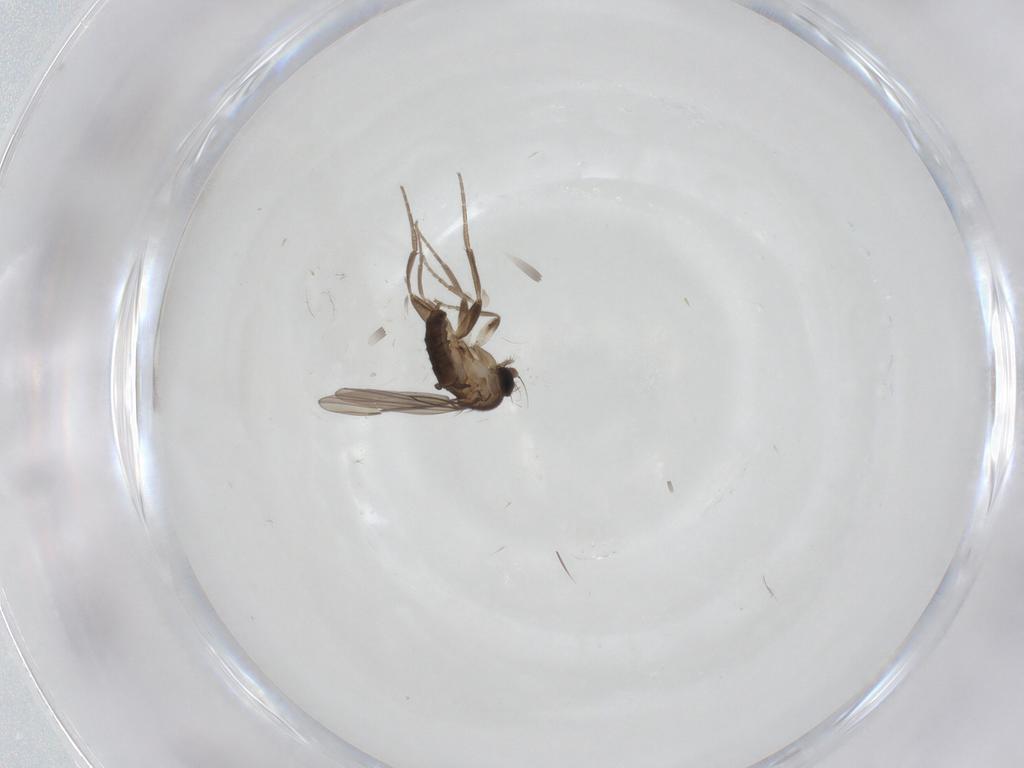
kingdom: Animalia
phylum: Arthropoda
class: Insecta
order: Diptera
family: Cecidomyiidae
